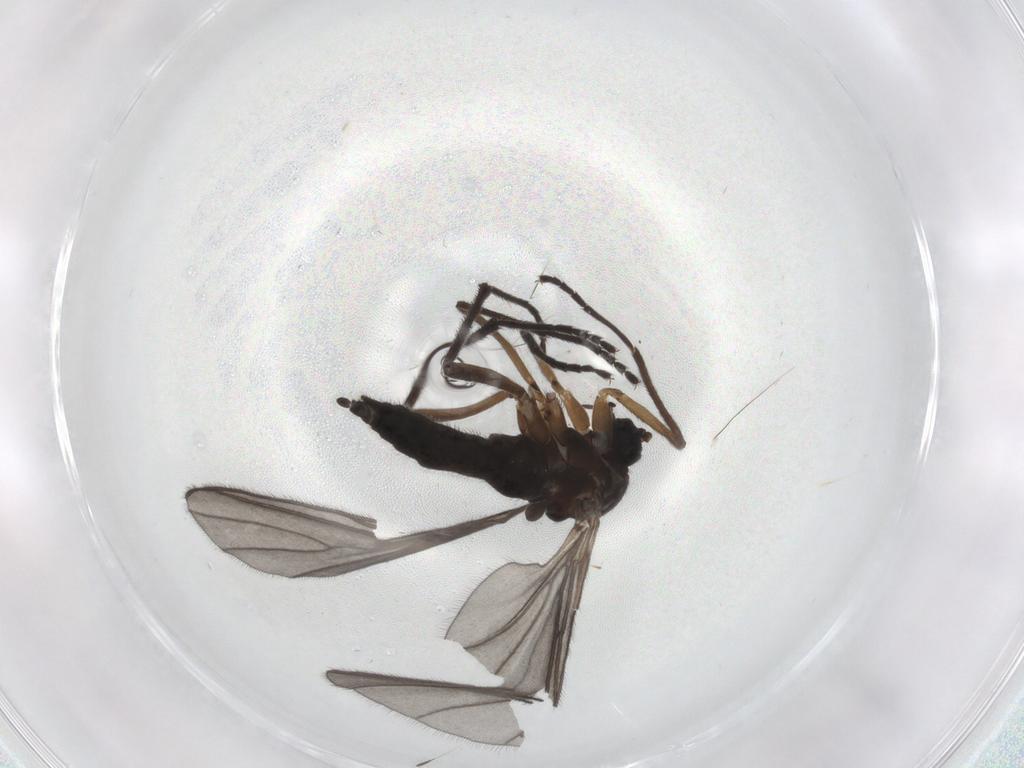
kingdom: Animalia
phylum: Arthropoda
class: Insecta
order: Diptera
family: Sciaridae
